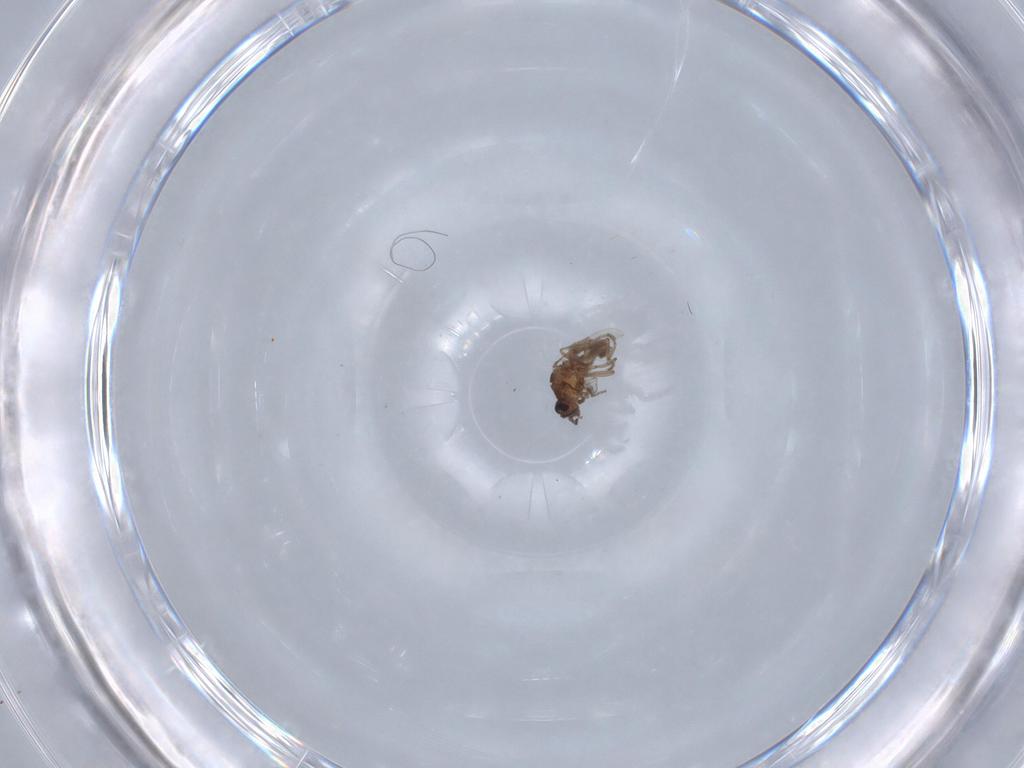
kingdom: Animalia
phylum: Arthropoda
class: Insecta
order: Diptera
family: Ceratopogonidae
